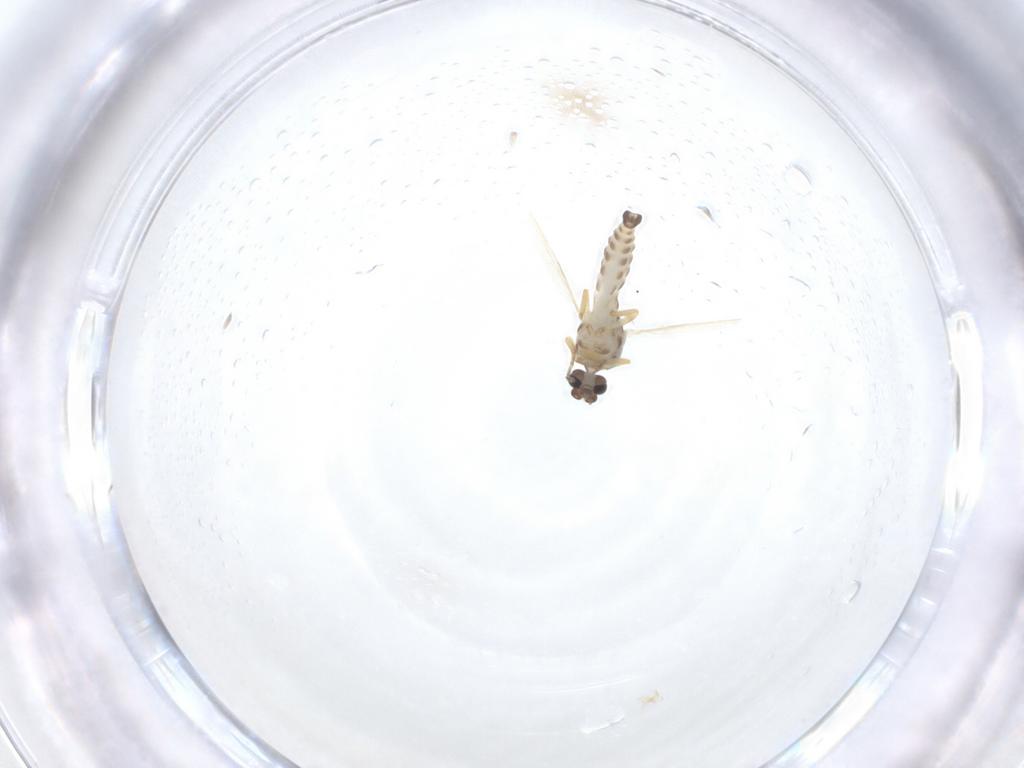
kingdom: Animalia
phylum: Arthropoda
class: Insecta
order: Diptera
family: Ceratopogonidae
